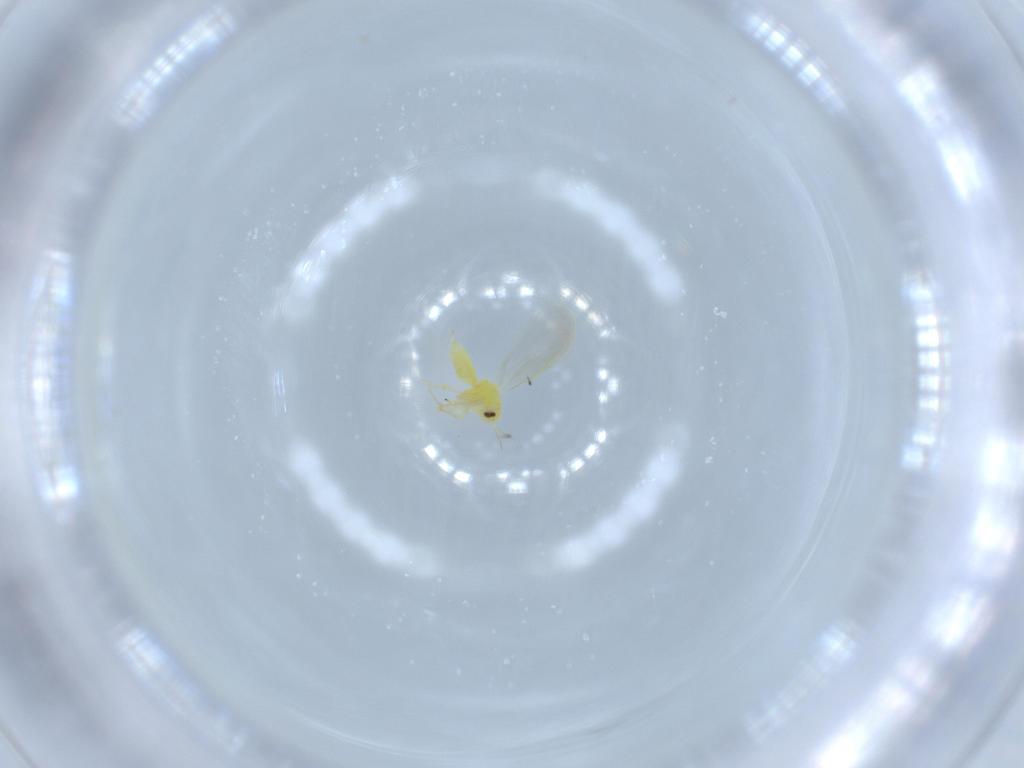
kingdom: Animalia
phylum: Arthropoda
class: Insecta
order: Hemiptera
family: Aleyrodidae
